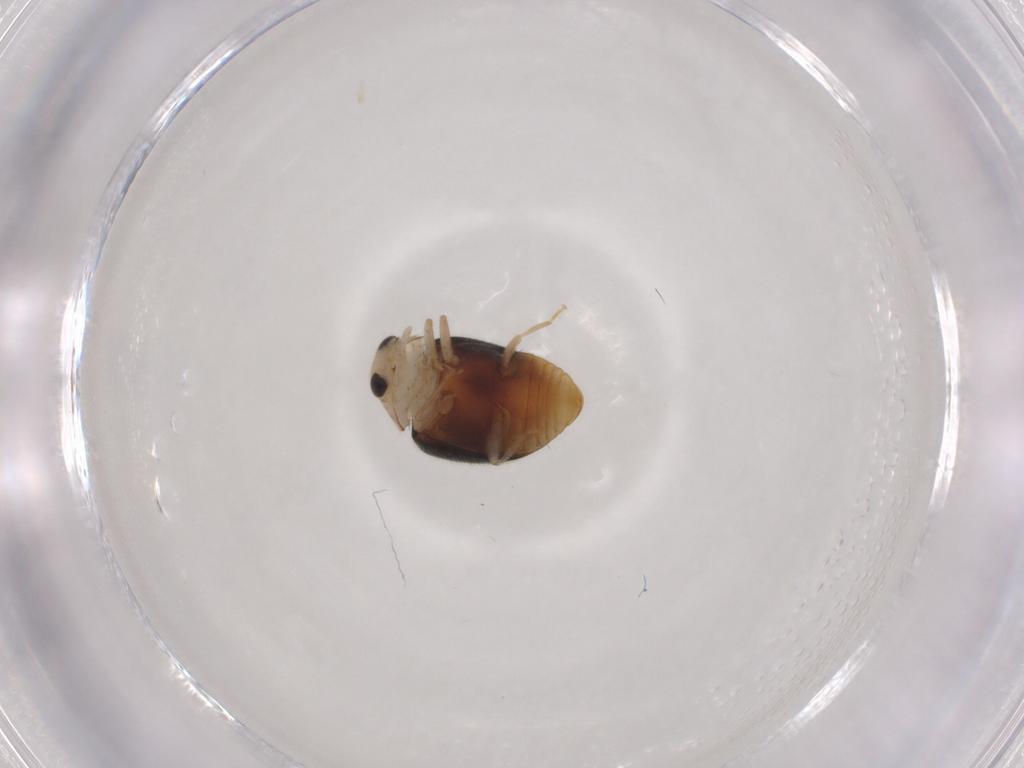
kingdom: Animalia
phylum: Arthropoda
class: Insecta
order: Coleoptera
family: Coccinellidae
